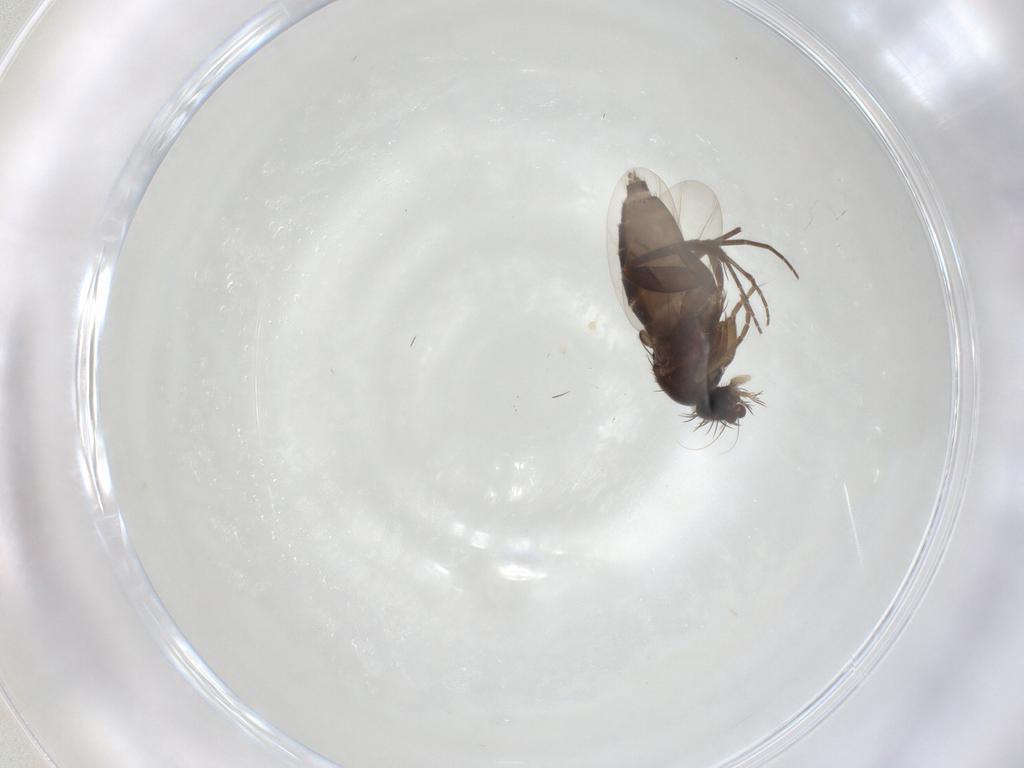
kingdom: Animalia
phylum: Arthropoda
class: Insecta
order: Diptera
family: Phoridae
